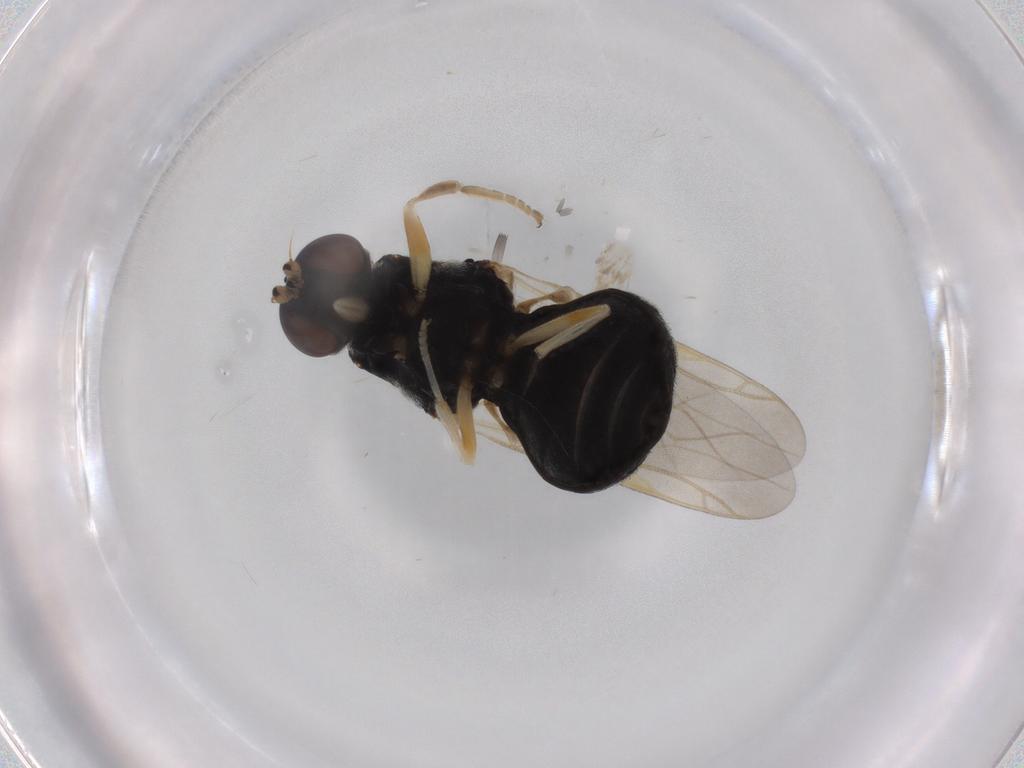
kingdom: Animalia
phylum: Arthropoda
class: Insecta
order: Diptera
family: Stratiomyidae
